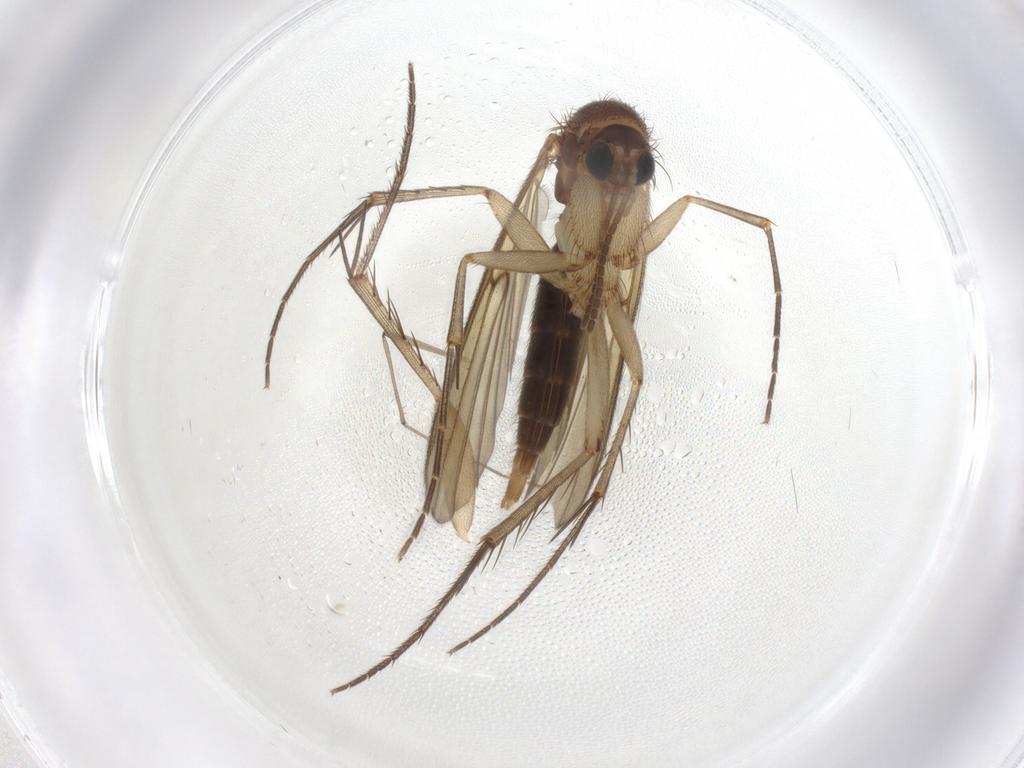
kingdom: Animalia
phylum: Arthropoda
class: Insecta
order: Diptera
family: Mycetophilidae
